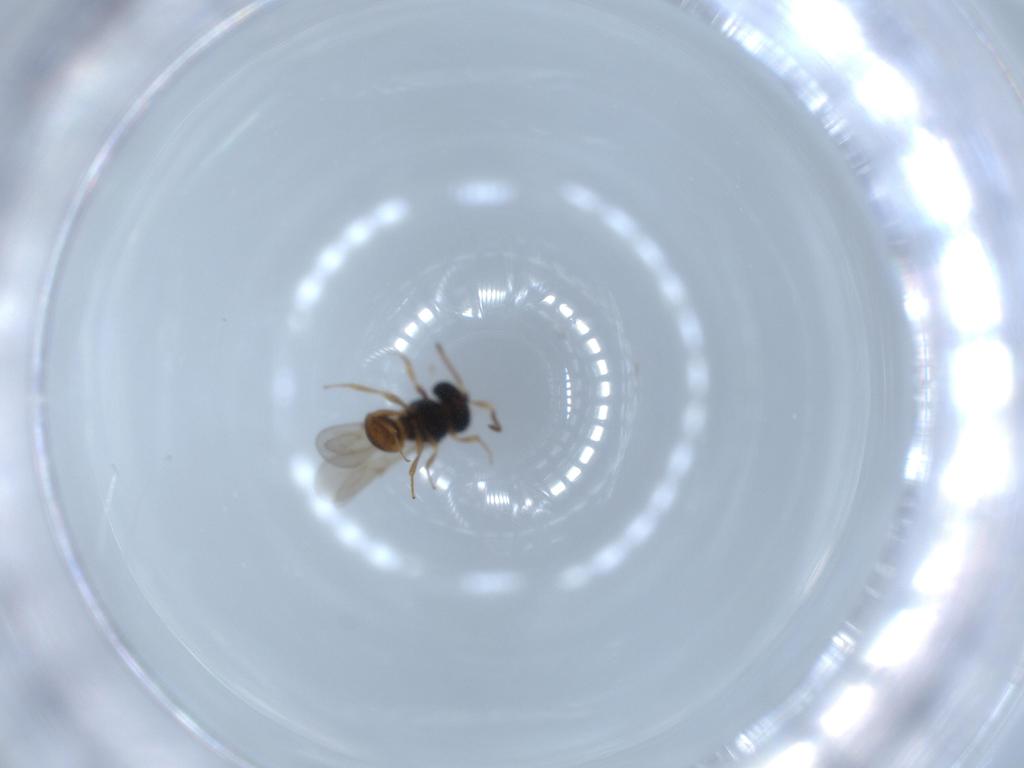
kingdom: Animalia
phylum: Arthropoda
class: Insecta
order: Hymenoptera
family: Scelionidae
